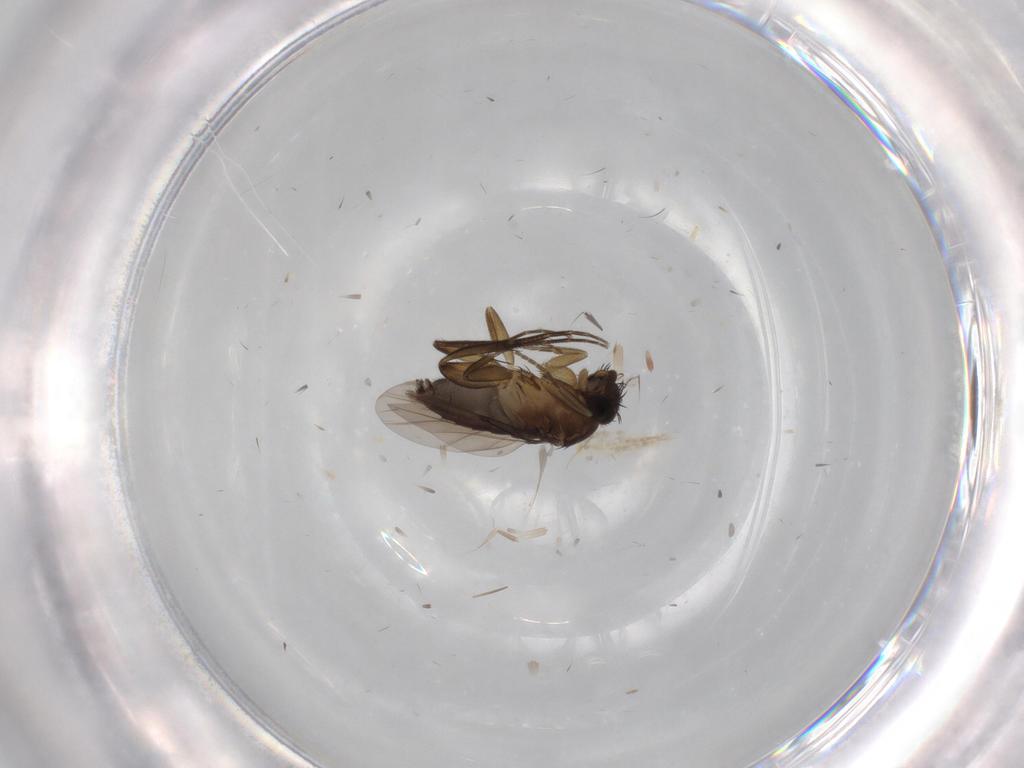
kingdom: Animalia
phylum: Arthropoda
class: Insecta
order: Diptera
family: Phoridae
